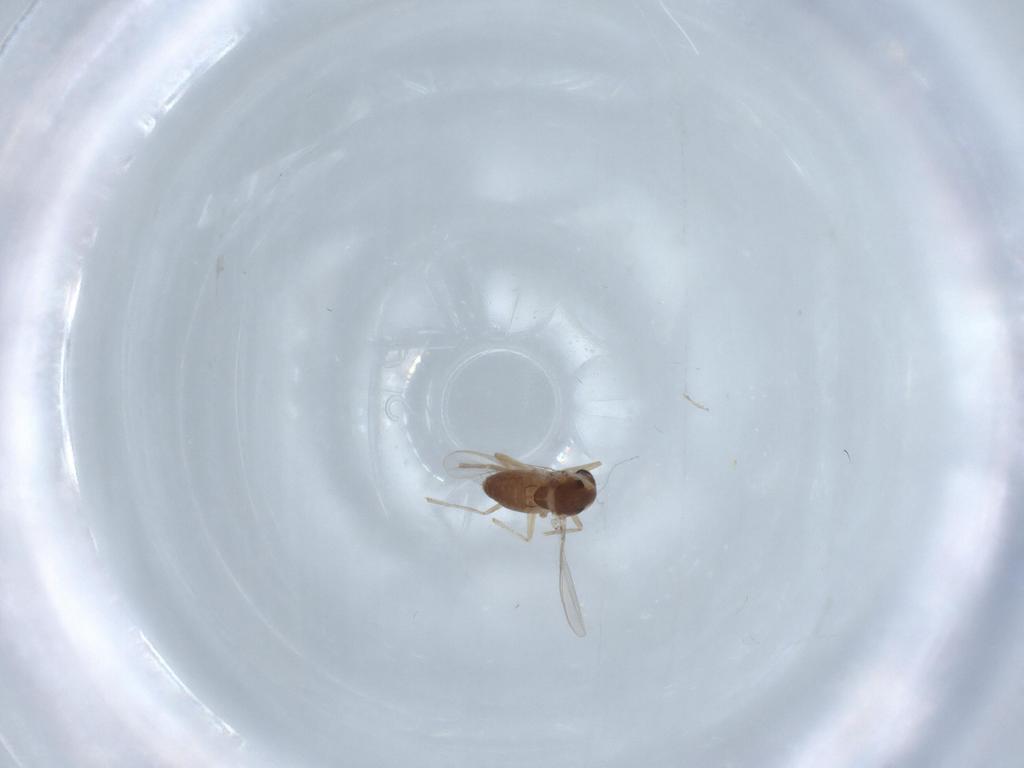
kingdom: Animalia
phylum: Arthropoda
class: Insecta
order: Diptera
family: Chironomidae
